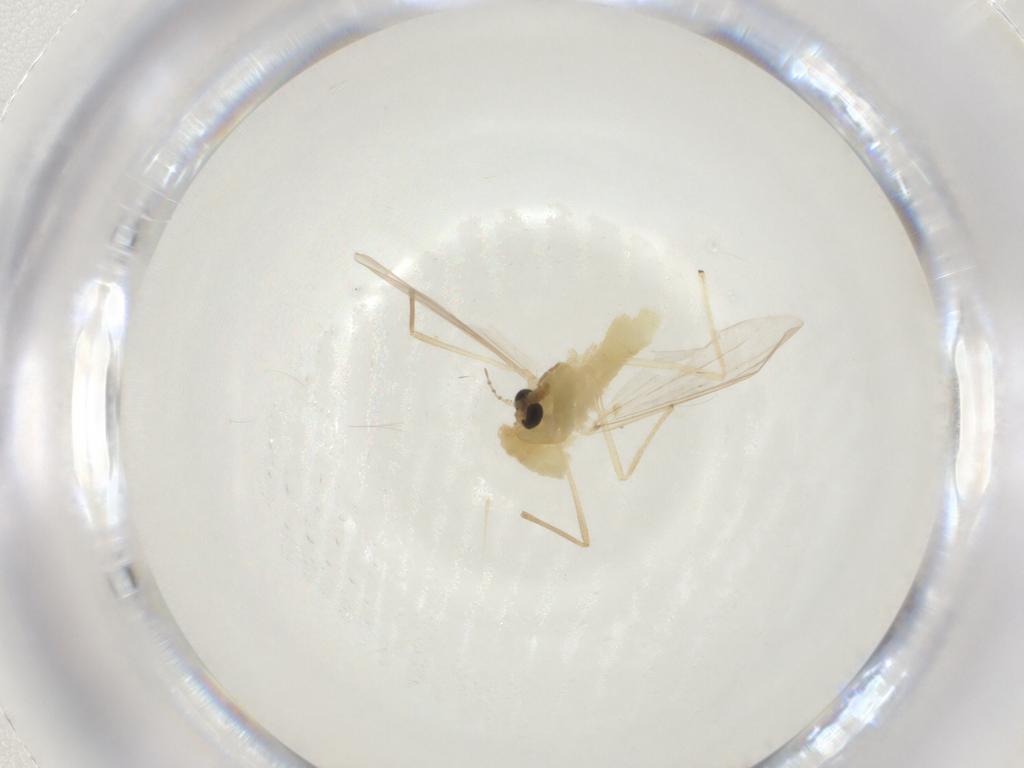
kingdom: Animalia
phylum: Arthropoda
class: Insecta
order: Diptera
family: Chironomidae
